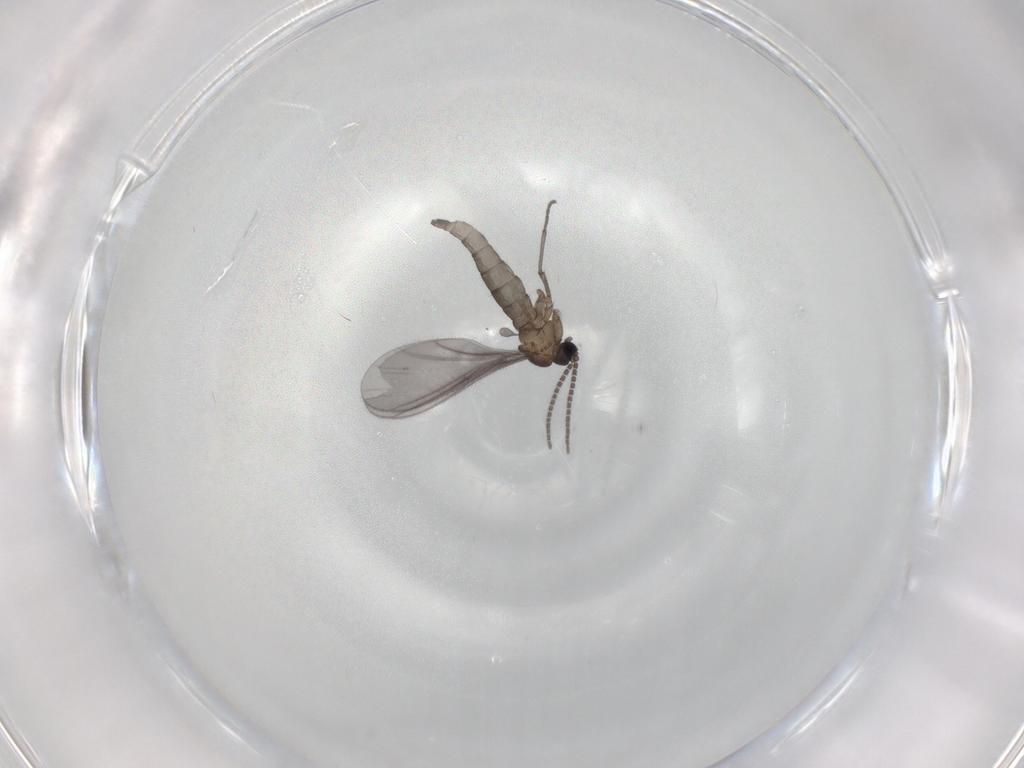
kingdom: Animalia
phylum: Arthropoda
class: Insecta
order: Diptera
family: Sciaridae
